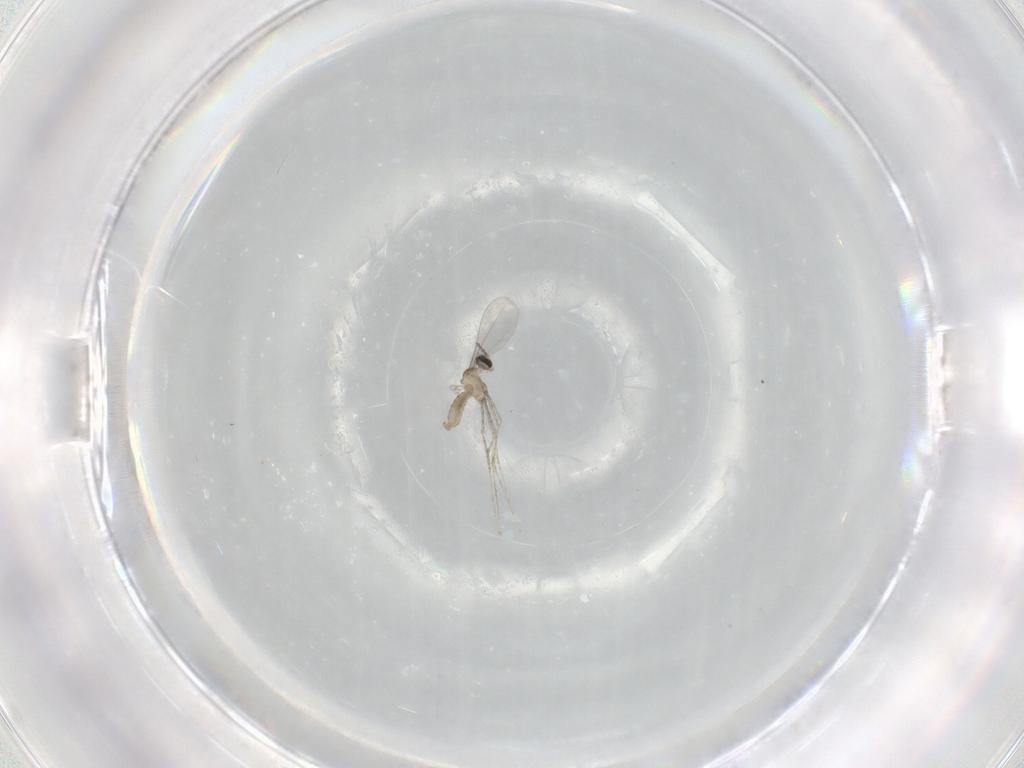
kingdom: Animalia
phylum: Arthropoda
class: Insecta
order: Diptera
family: Cecidomyiidae
